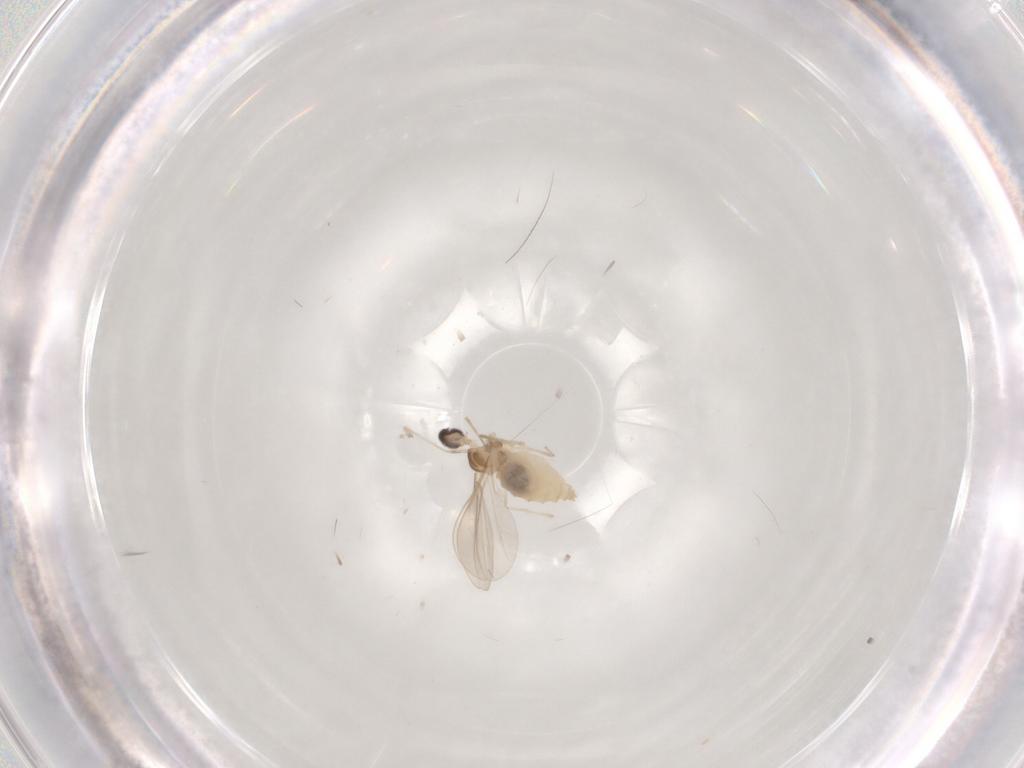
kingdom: Animalia
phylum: Arthropoda
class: Insecta
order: Diptera
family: Cecidomyiidae
